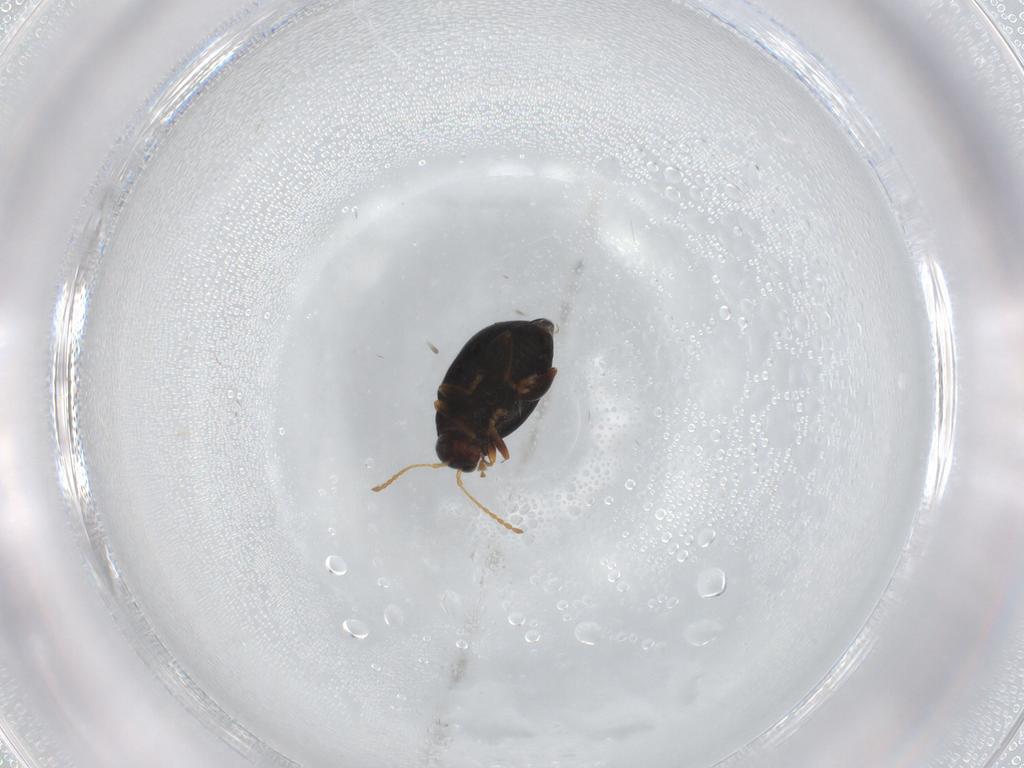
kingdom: Animalia
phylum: Arthropoda
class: Insecta
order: Coleoptera
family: Chrysomelidae
